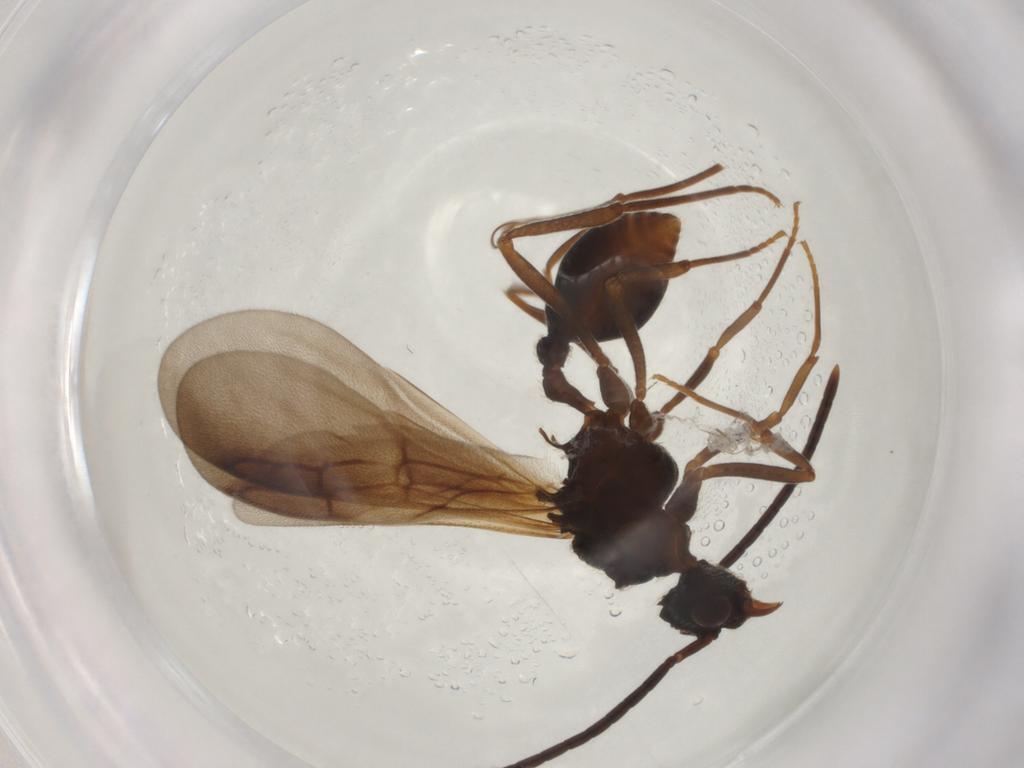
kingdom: Animalia
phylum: Arthropoda
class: Insecta
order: Hymenoptera
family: Formicidae
